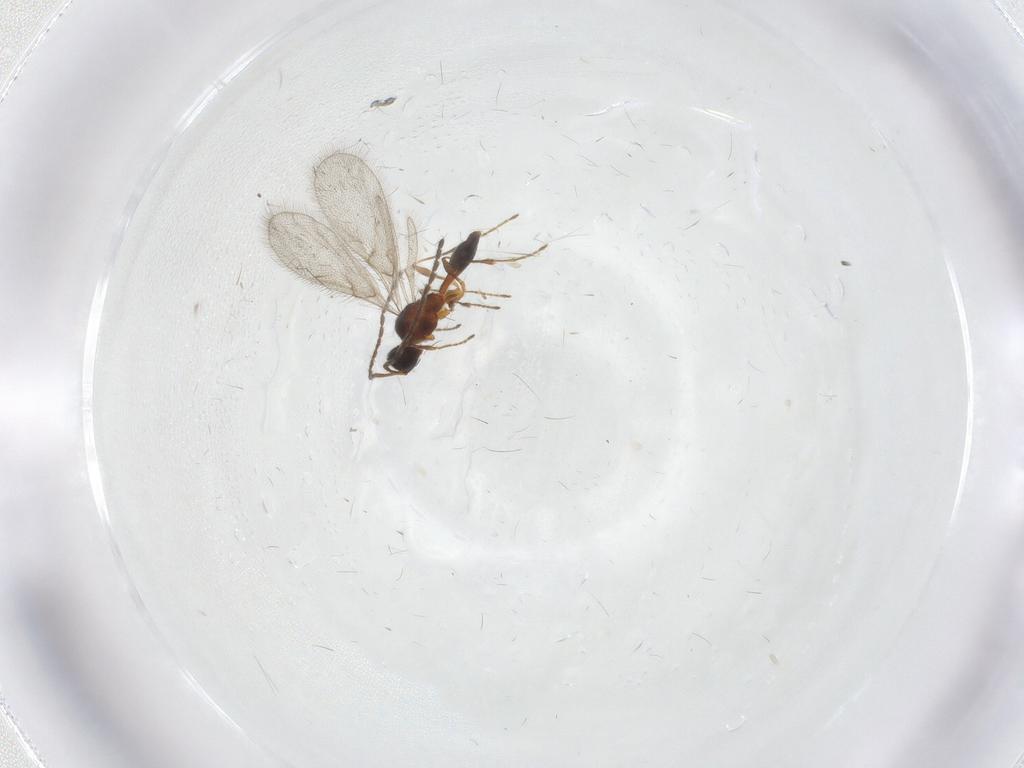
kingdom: Animalia
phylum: Arthropoda
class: Insecta
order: Hymenoptera
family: Diapriidae
